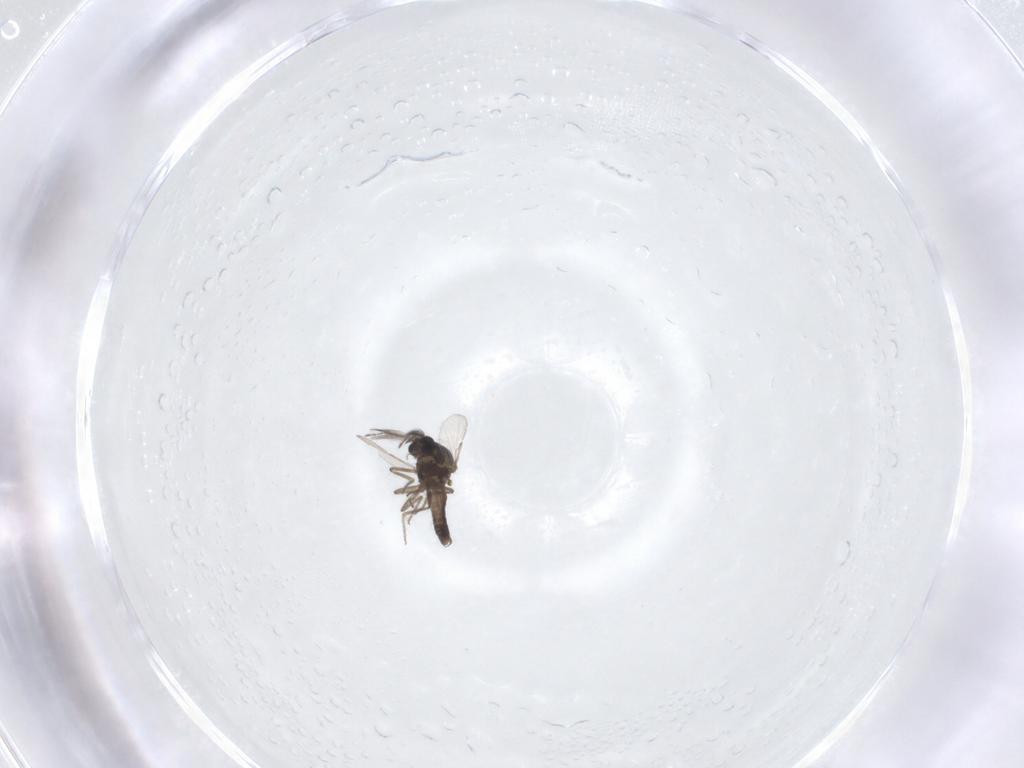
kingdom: Animalia
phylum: Arthropoda
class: Insecta
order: Diptera
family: Ceratopogonidae
